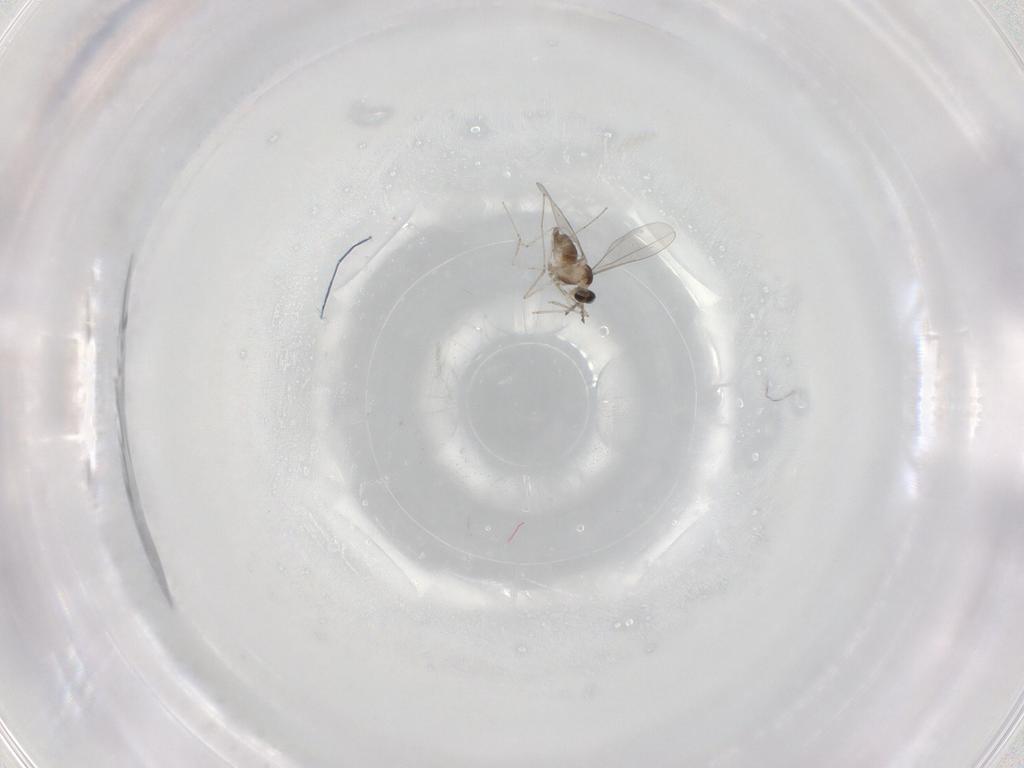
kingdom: Animalia
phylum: Arthropoda
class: Insecta
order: Diptera
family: Cecidomyiidae
